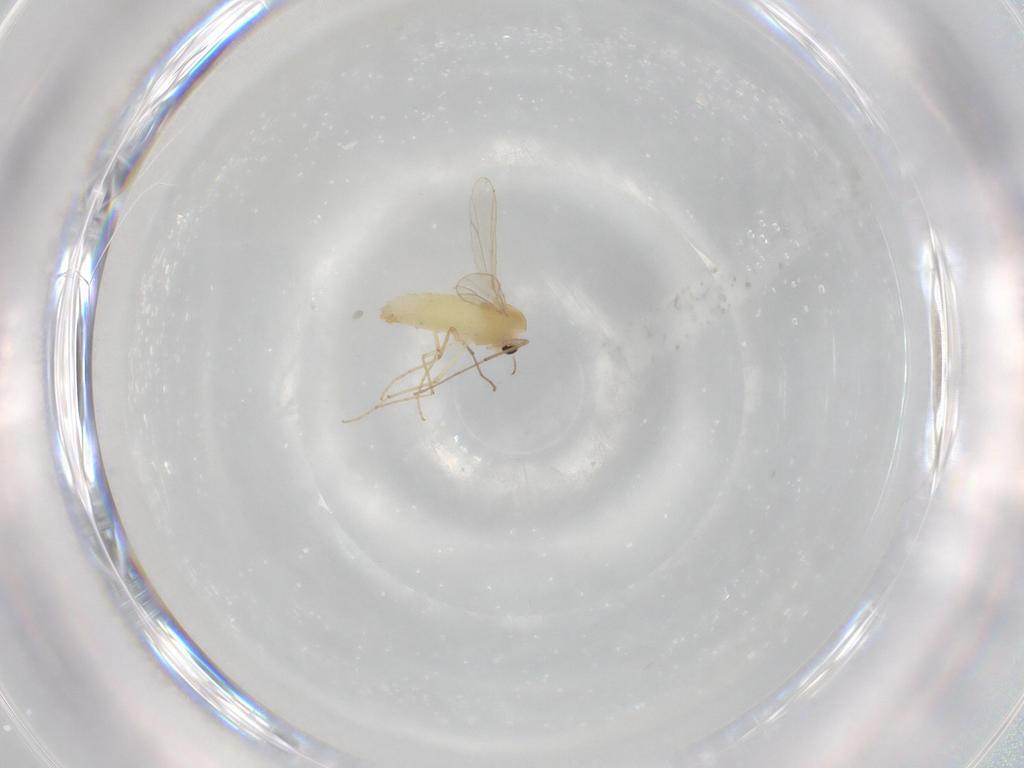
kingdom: Animalia
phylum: Arthropoda
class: Insecta
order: Diptera
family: Chironomidae
